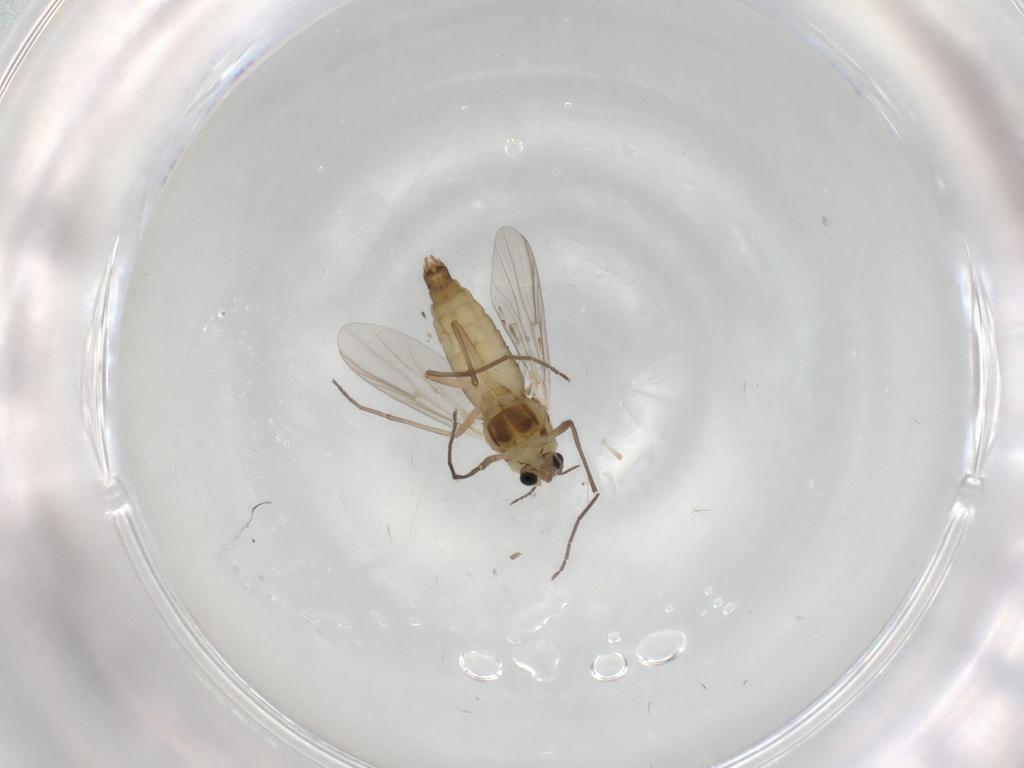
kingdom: Animalia
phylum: Arthropoda
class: Insecta
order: Diptera
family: Chironomidae
